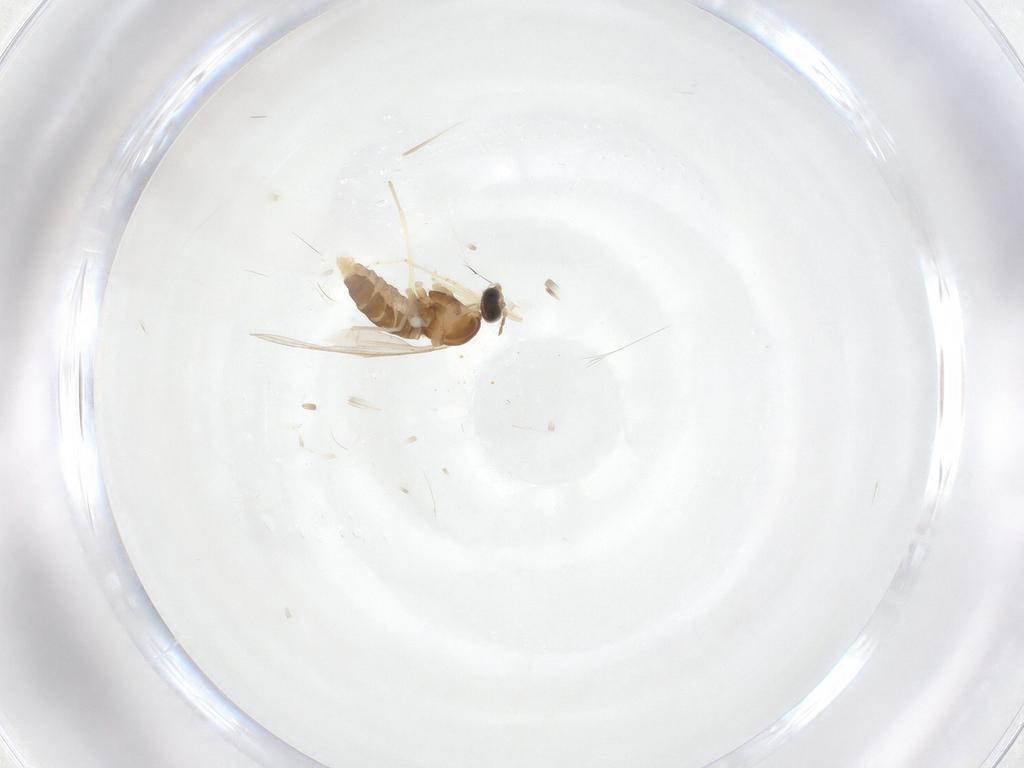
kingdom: Animalia
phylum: Arthropoda
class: Insecta
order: Diptera
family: Cecidomyiidae
